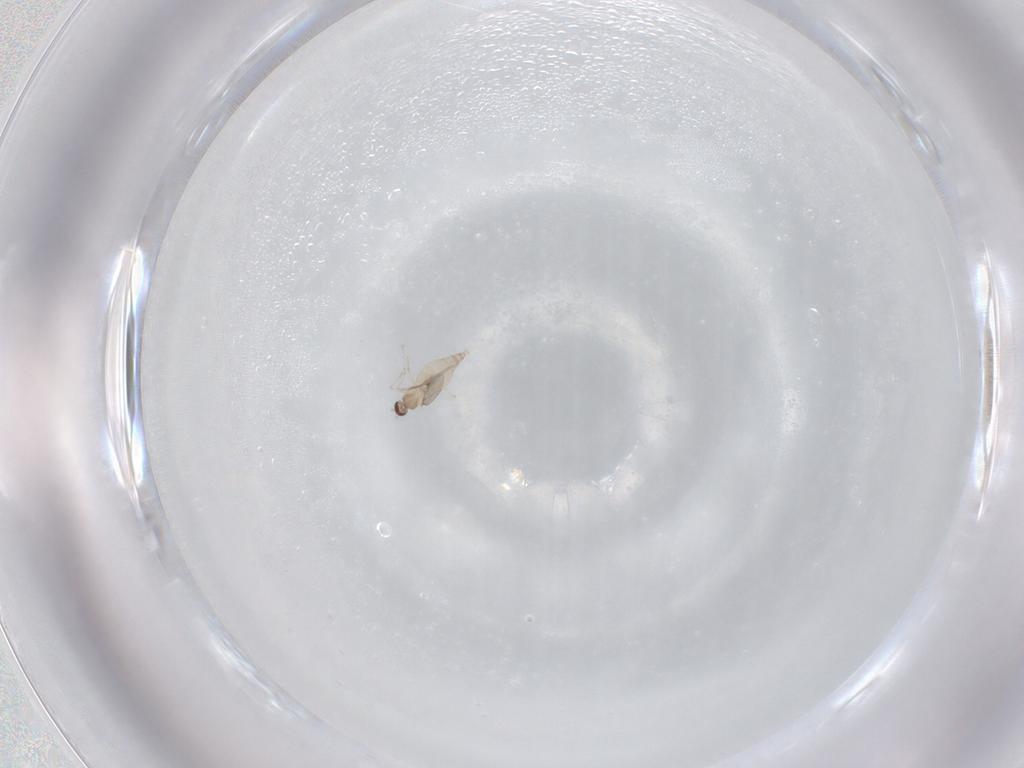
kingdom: Animalia
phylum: Arthropoda
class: Insecta
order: Diptera
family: Cecidomyiidae
